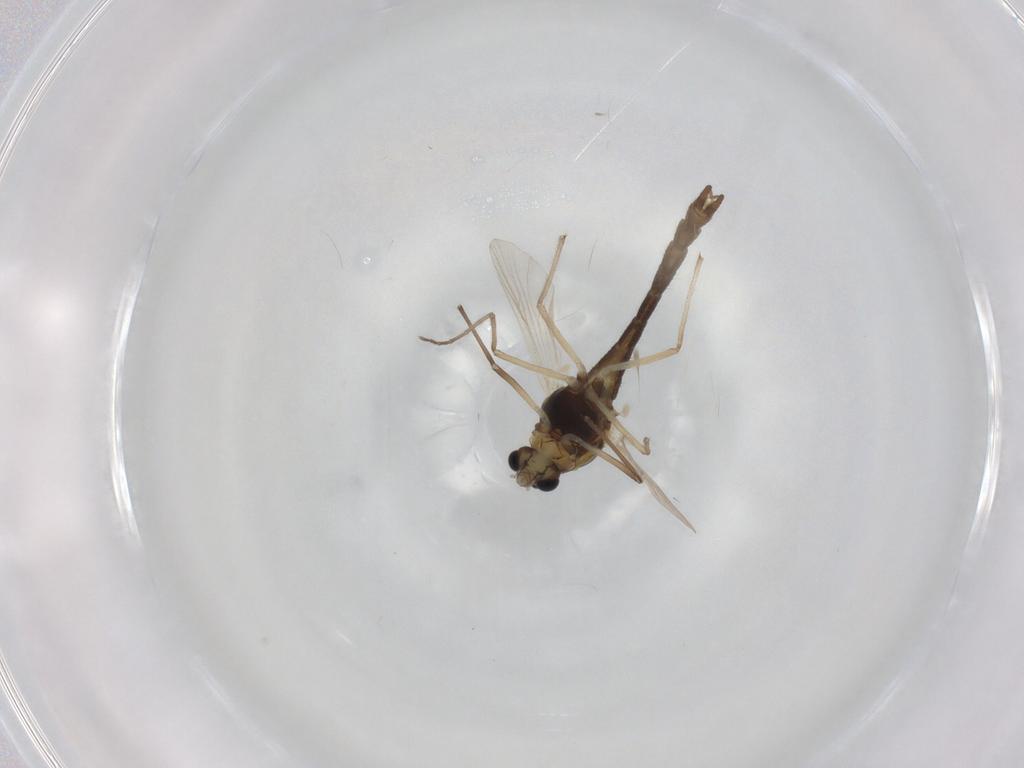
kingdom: Animalia
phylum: Arthropoda
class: Insecta
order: Diptera
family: Chironomidae
